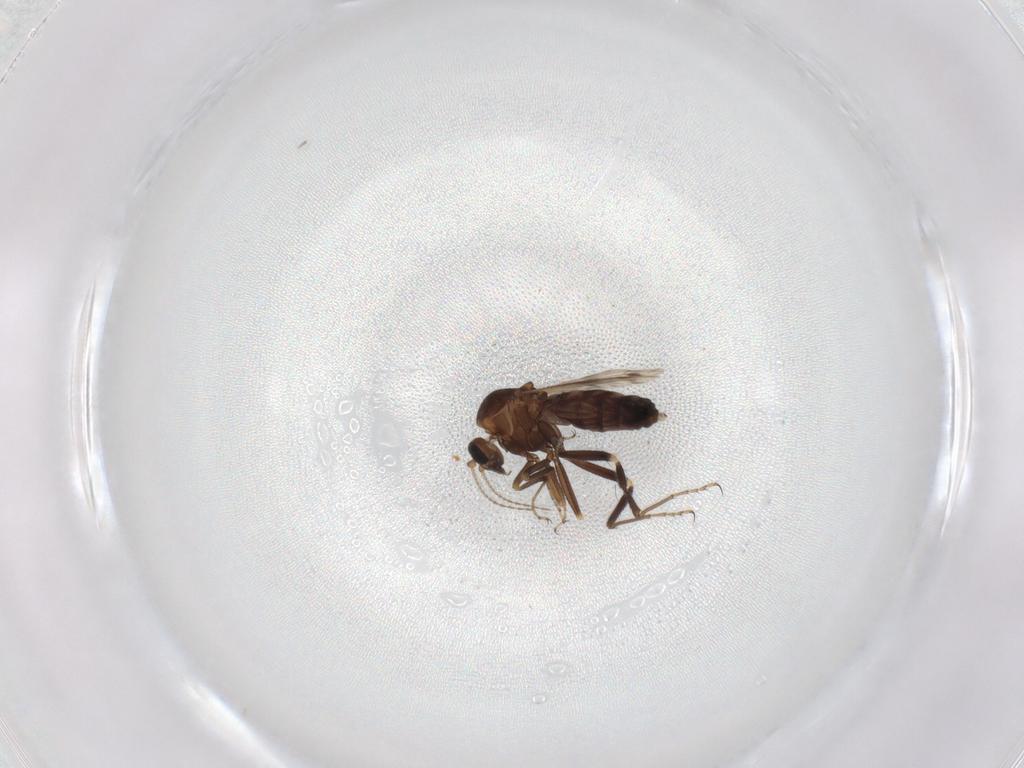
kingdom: Animalia
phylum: Arthropoda
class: Insecta
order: Diptera
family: Ceratopogonidae
